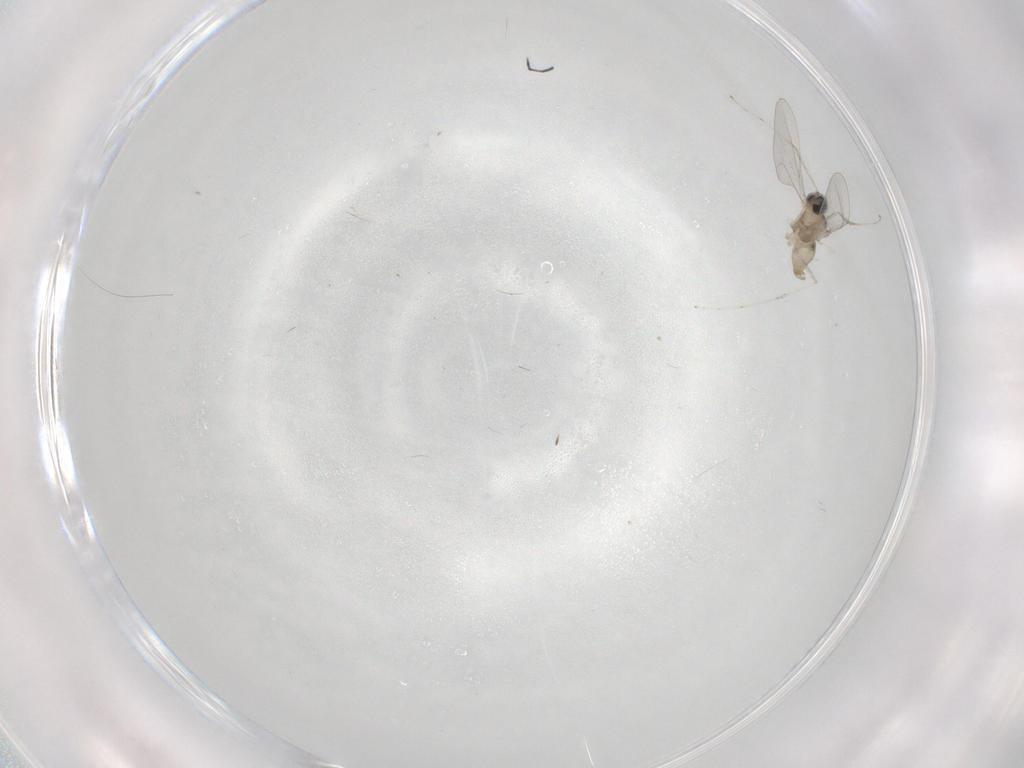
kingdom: Animalia
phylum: Arthropoda
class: Insecta
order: Diptera
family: Cecidomyiidae
